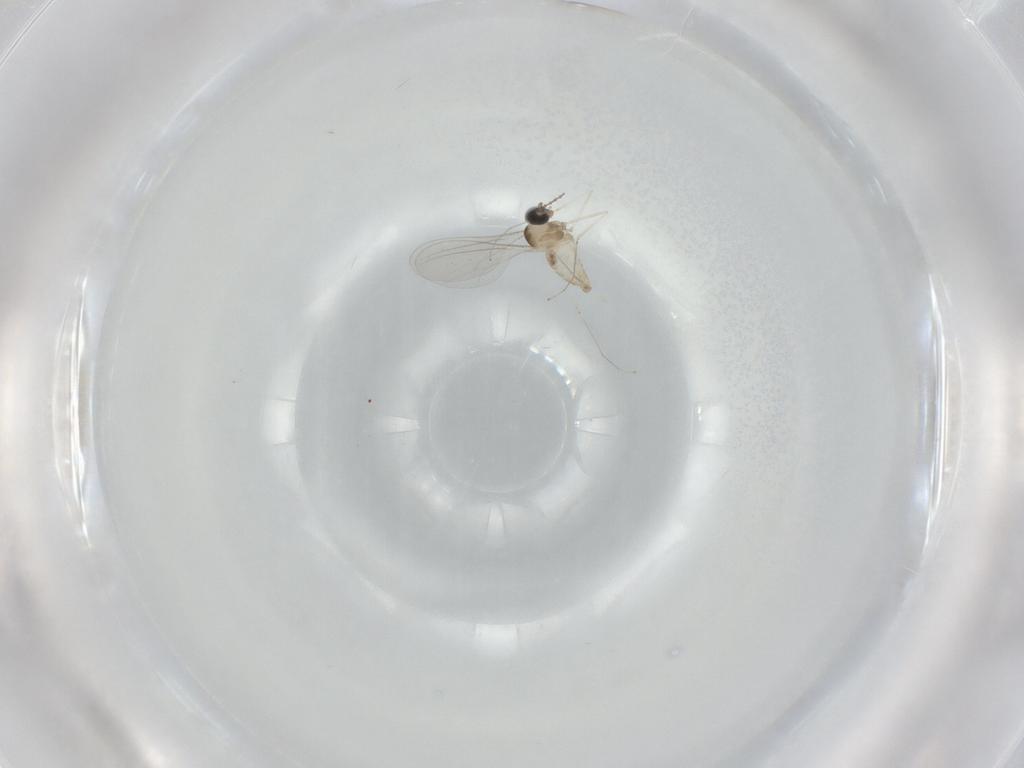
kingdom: Animalia
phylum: Arthropoda
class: Insecta
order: Diptera
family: Cecidomyiidae
